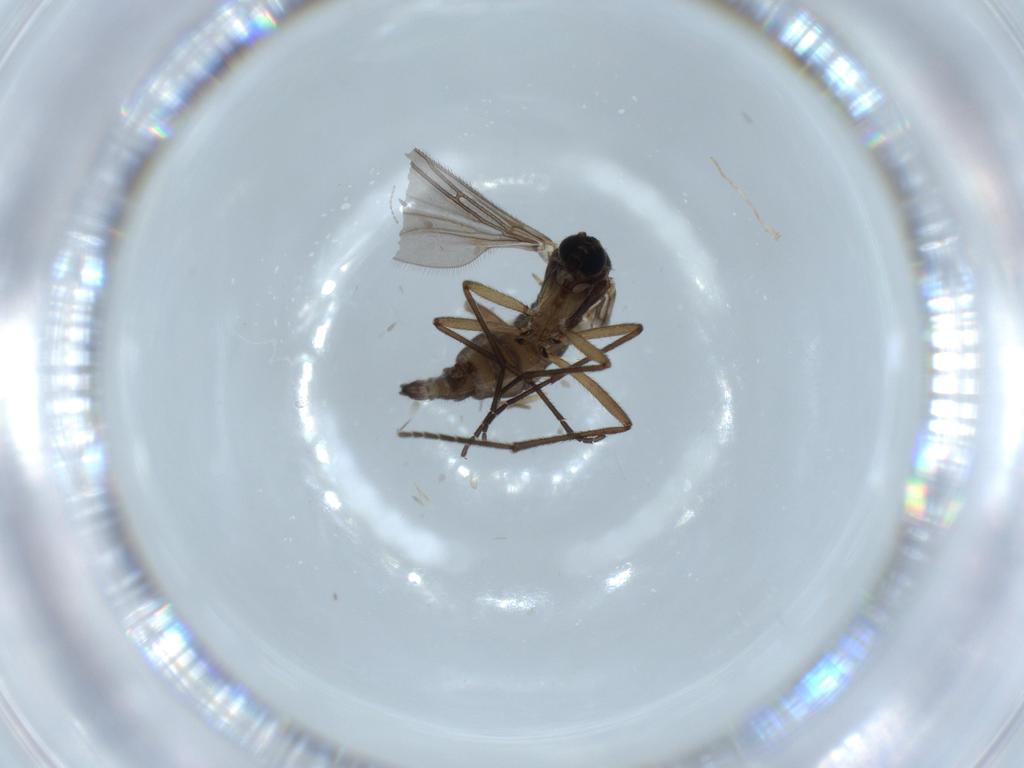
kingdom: Animalia
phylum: Arthropoda
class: Insecta
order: Diptera
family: Sciaridae
